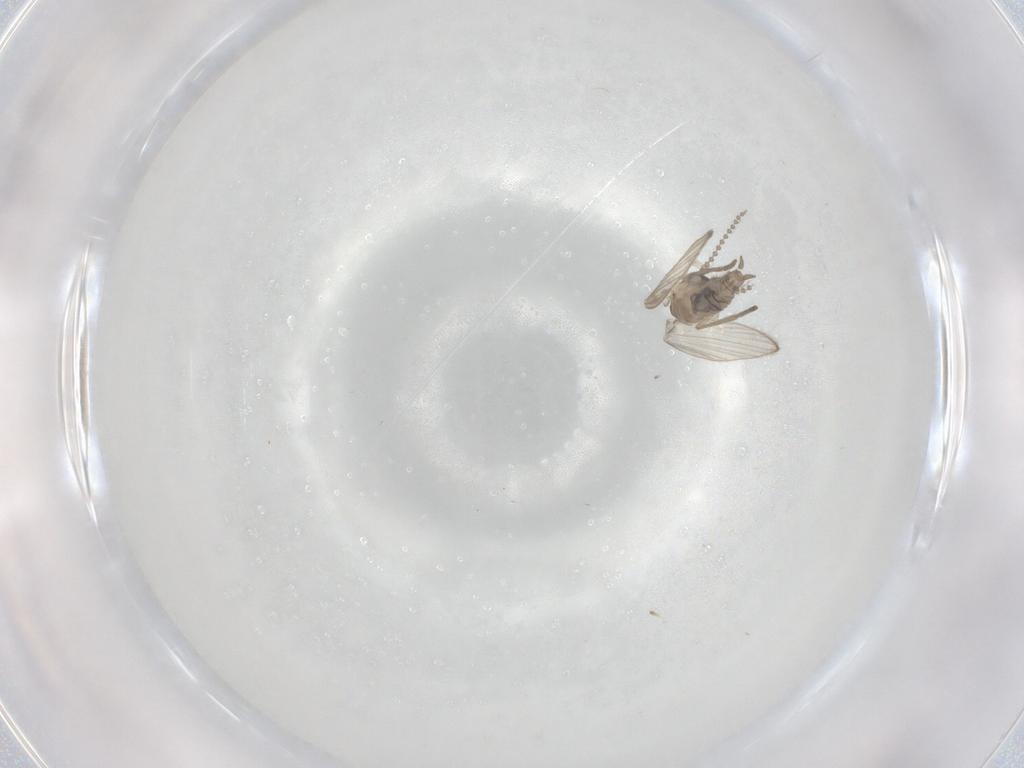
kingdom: Animalia
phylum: Arthropoda
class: Insecta
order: Diptera
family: Psychodidae
